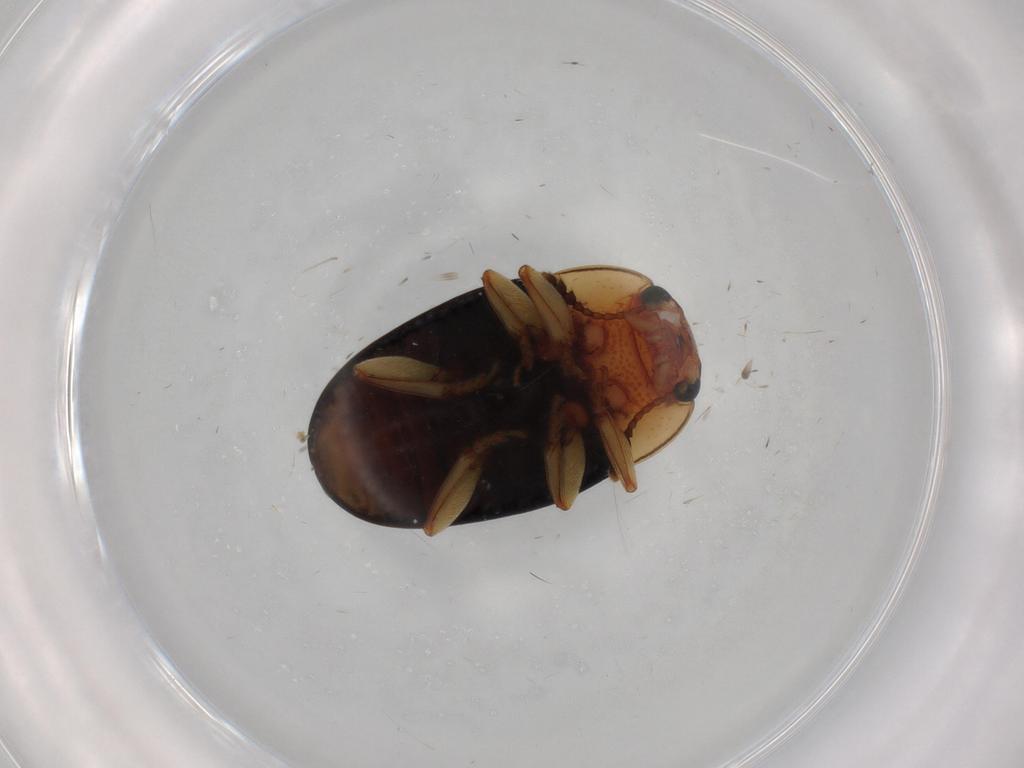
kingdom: Animalia
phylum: Arthropoda
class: Insecta
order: Coleoptera
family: Erotylidae
